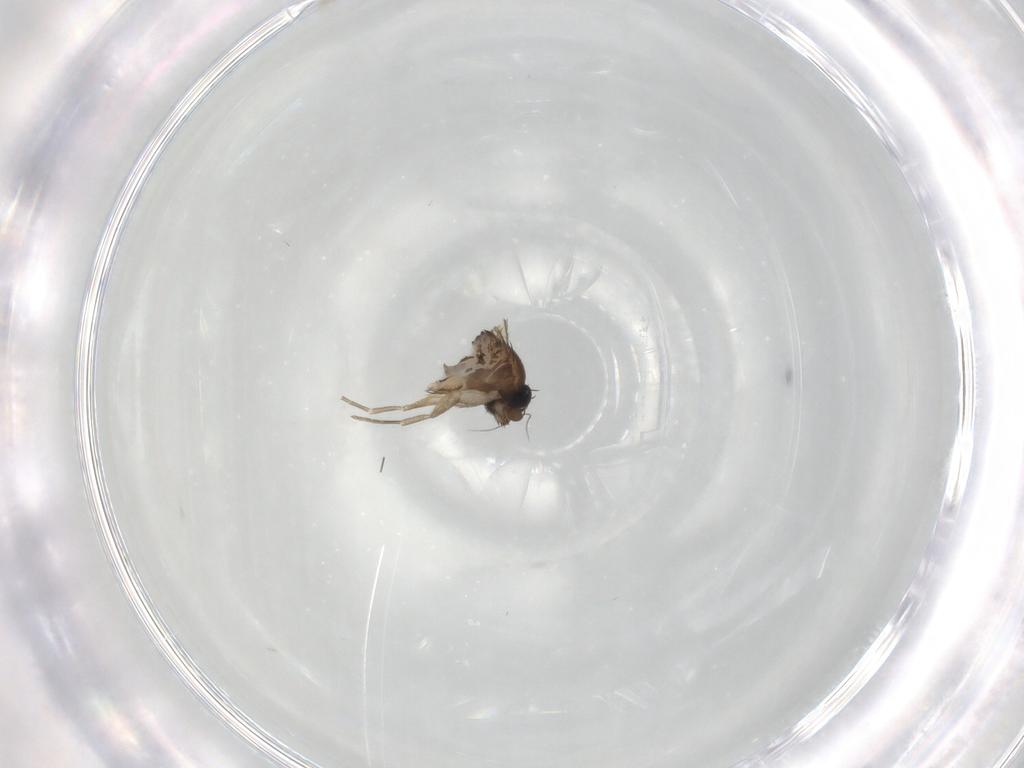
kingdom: Animalia
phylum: Arthropoda
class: Insecta
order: Diptera
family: Phoridae
